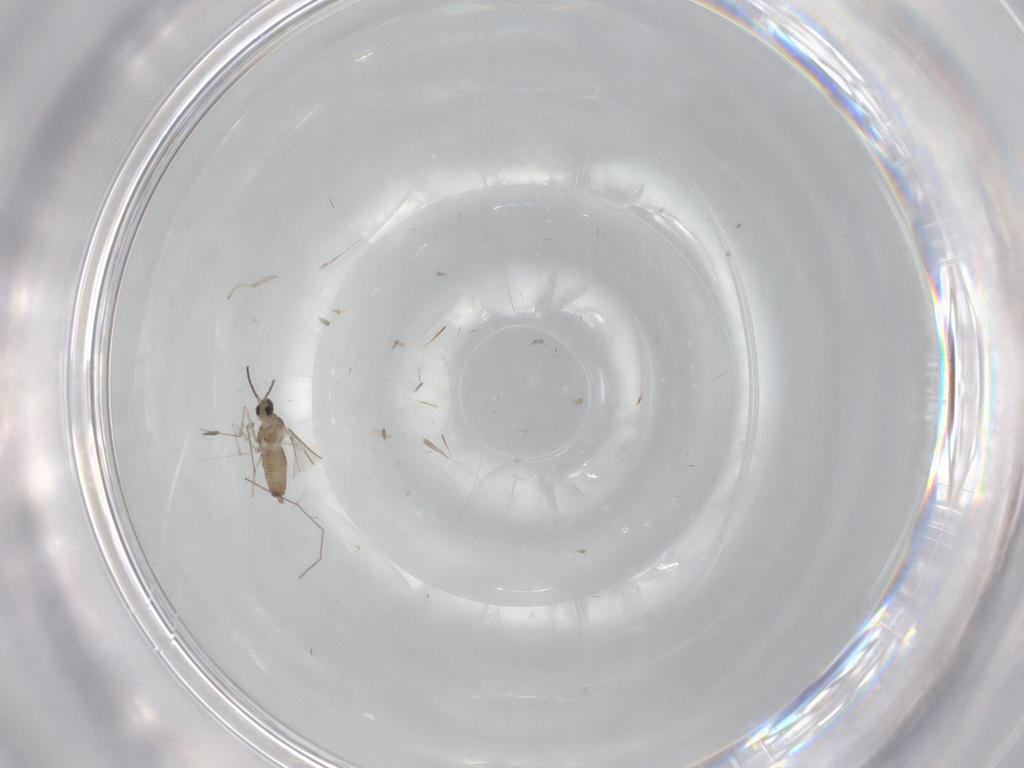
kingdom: Animalia
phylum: Arthropoda
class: Insecta
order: Diptera
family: Cecidomyiidae
